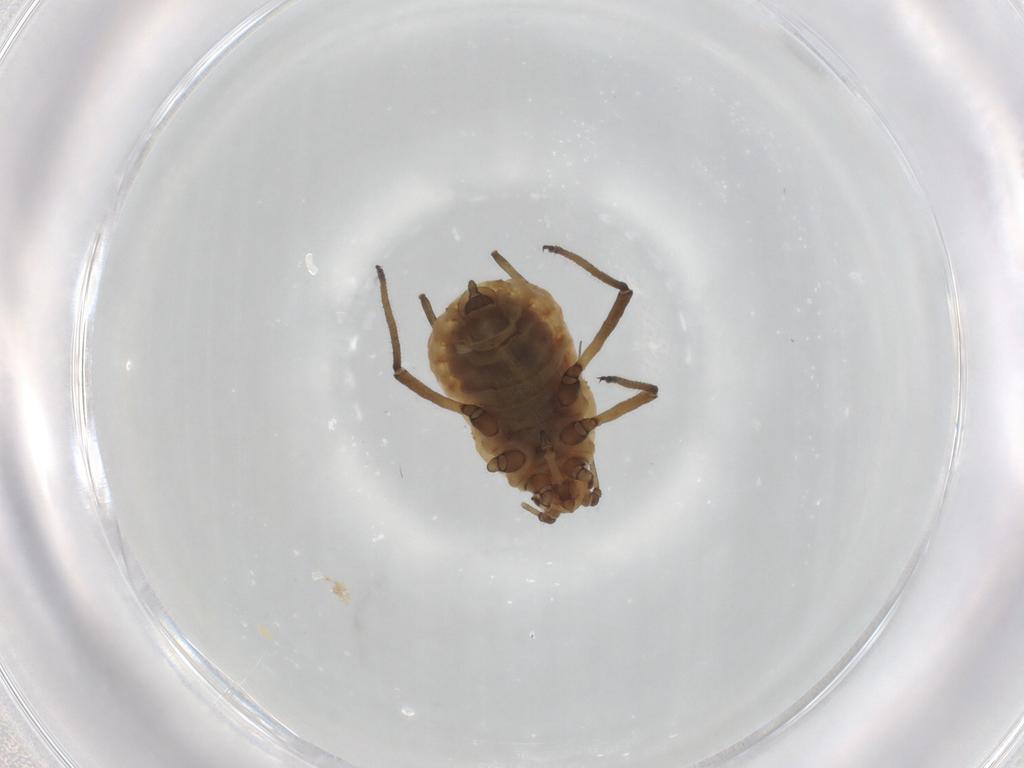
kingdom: Animalia
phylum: Arthropoda
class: Insecta
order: Hemiptera
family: Aphididae
